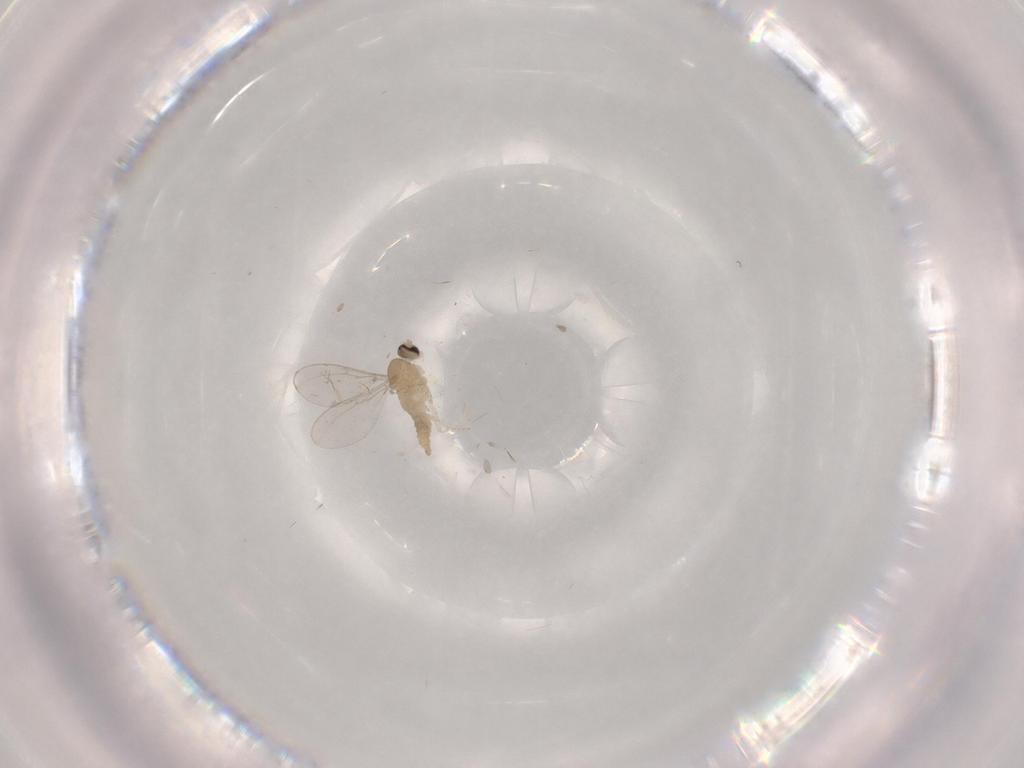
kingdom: Animalia
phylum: Arthropoda
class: Insecta
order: Diptera
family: Cecidomyiidae
